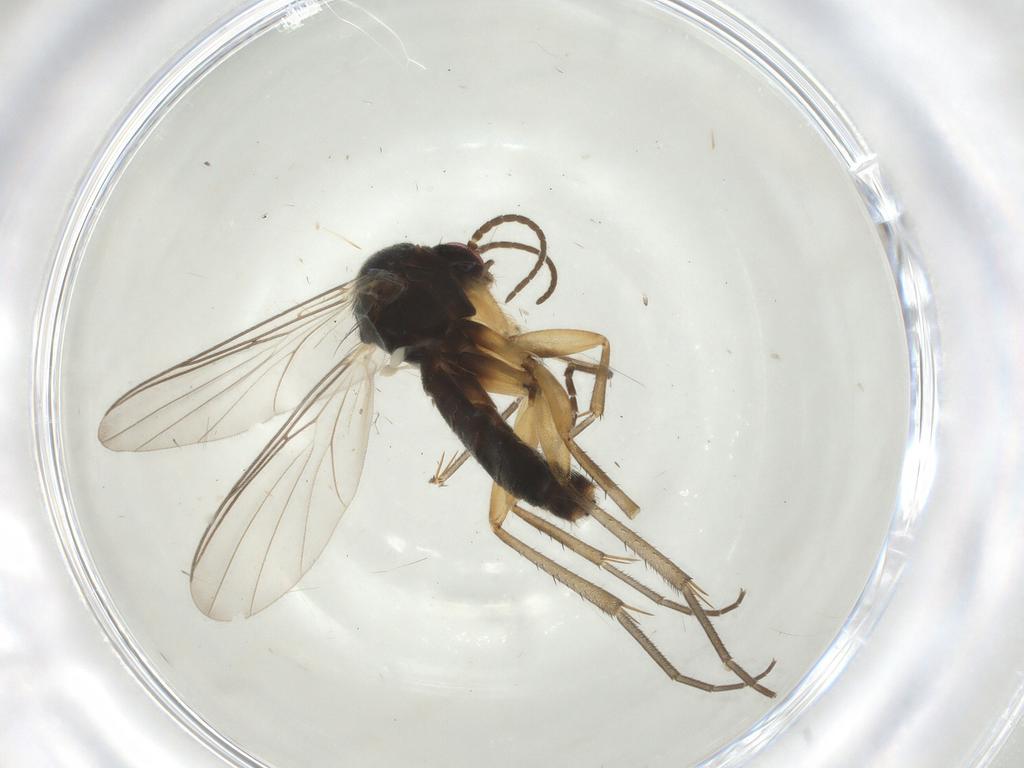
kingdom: Animalia
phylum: Arthropoda
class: Insecta
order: Diptera
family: Mycetophilidae
